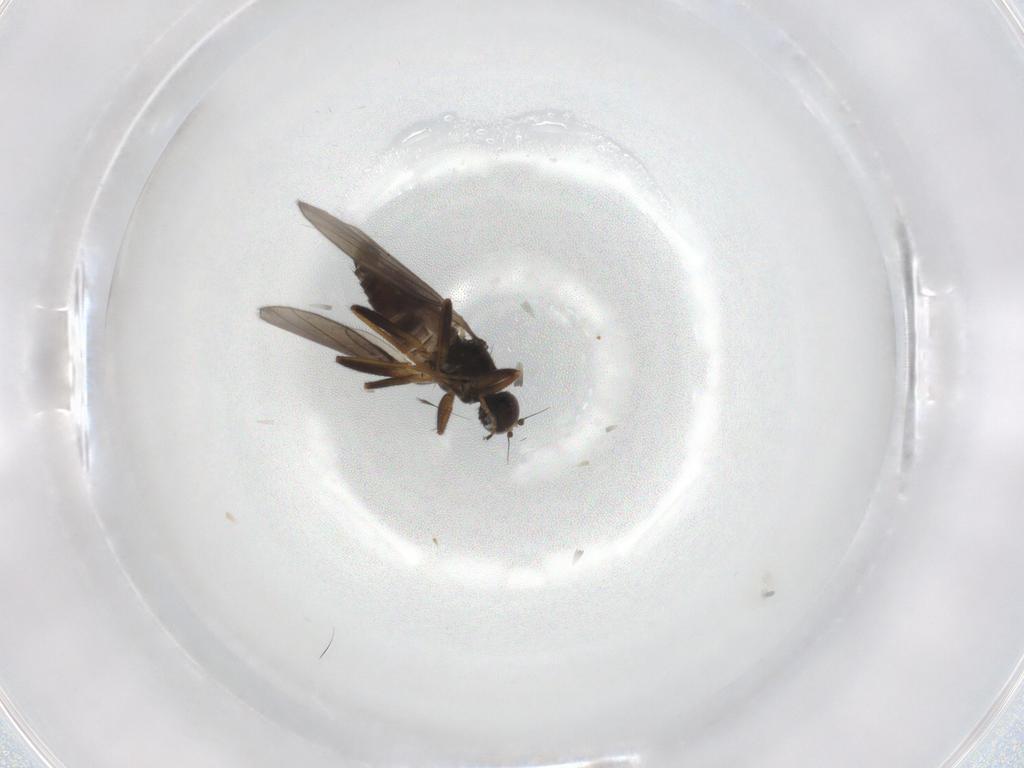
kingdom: Animalia
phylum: Arthropoda
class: Insecta
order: Diptera
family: Hybotidae
